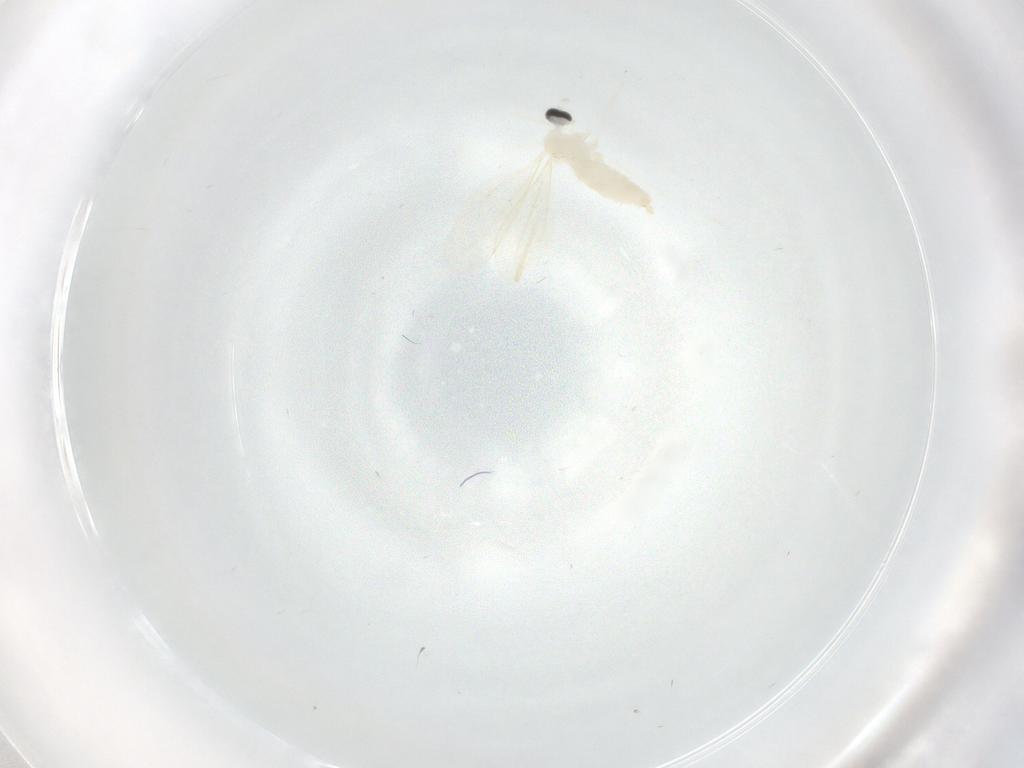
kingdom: Animalia
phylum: Arthropoda
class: Insecta
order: Diptera
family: Cecidomyiidae
